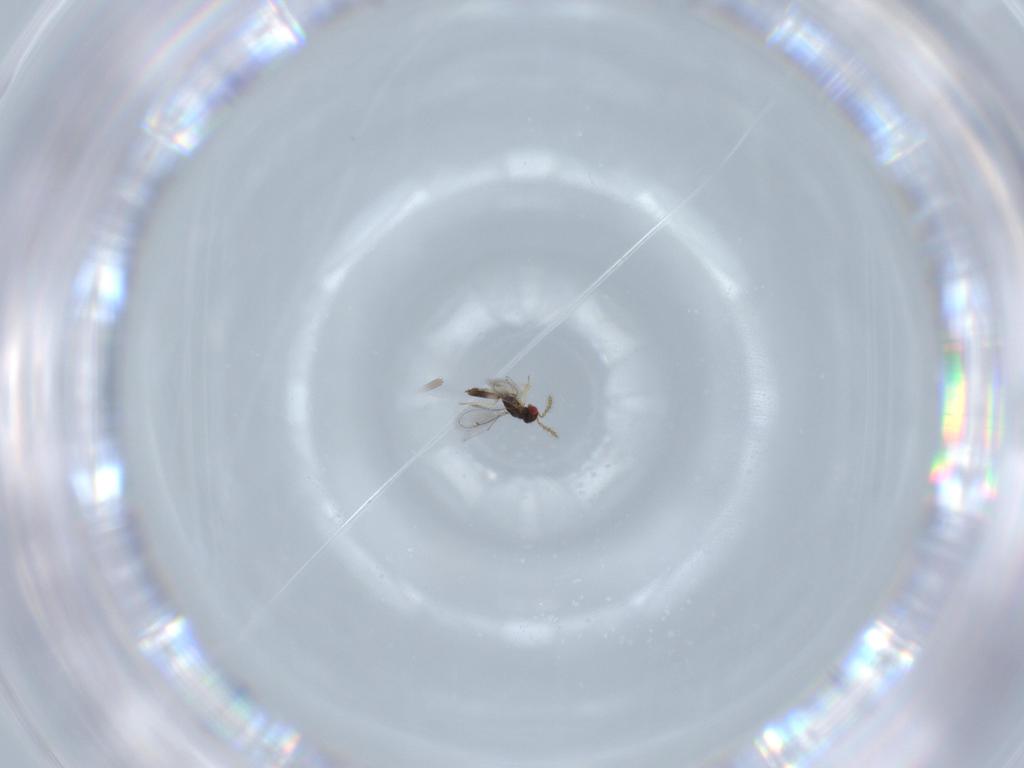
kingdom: Animalia
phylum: Arthropoda
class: Insecta
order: Hymenoptera
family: Eulophidae
